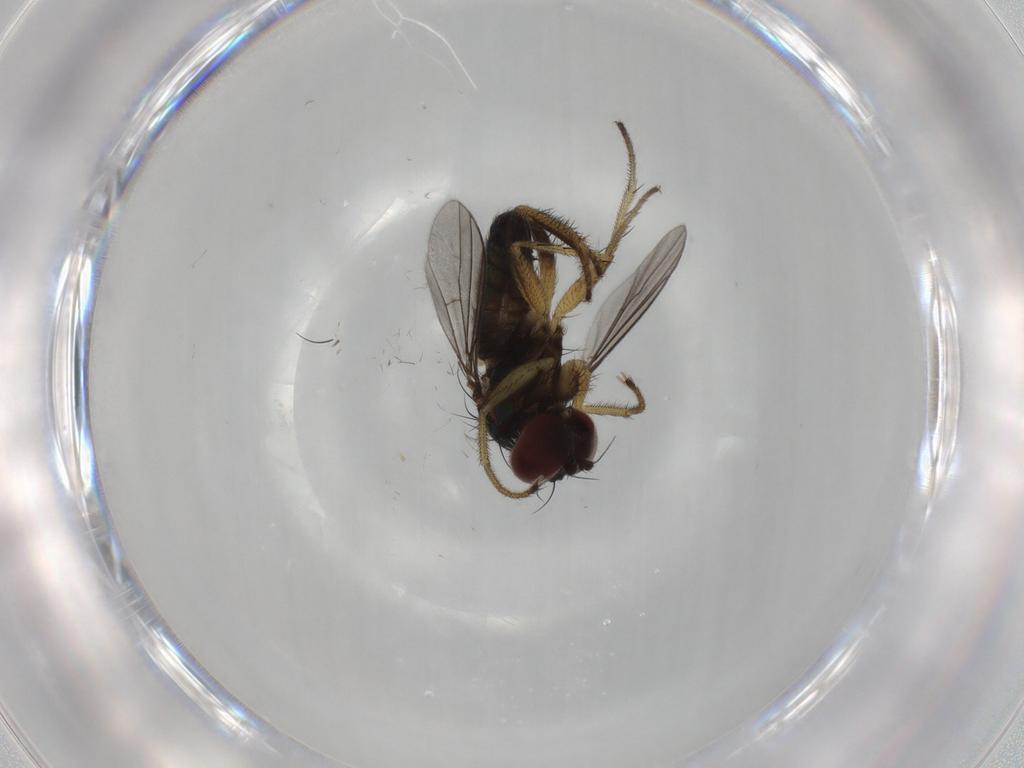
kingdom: Animalia
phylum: Arthropoda
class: Insecta
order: Diptera
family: Dolichopodidae
